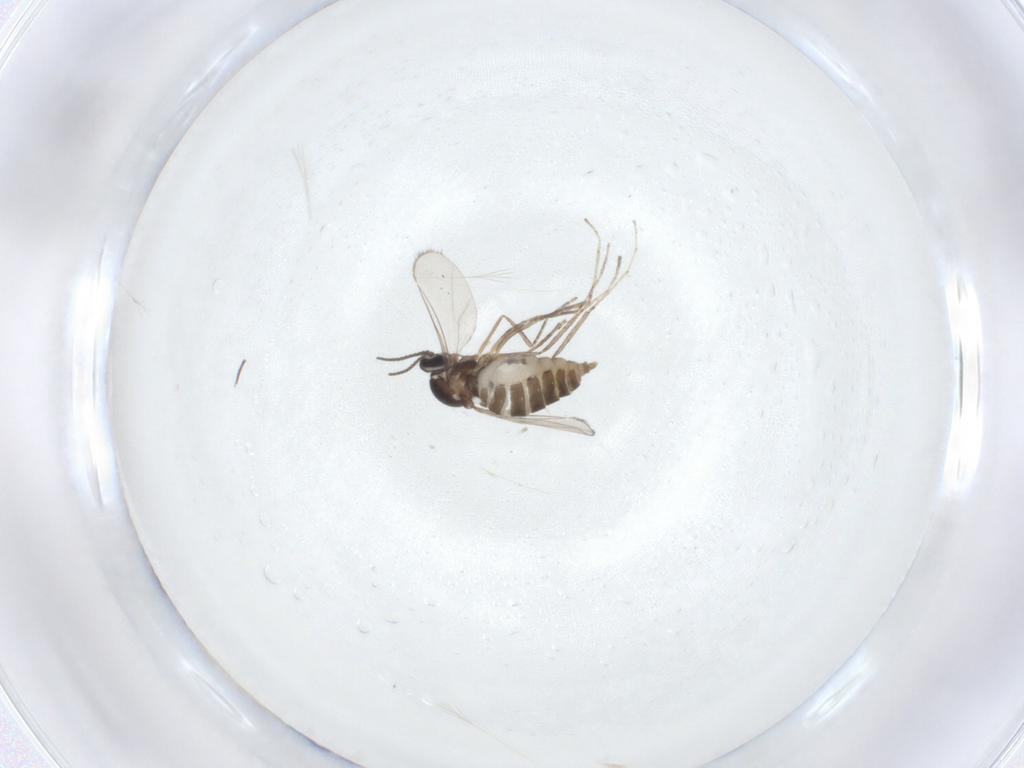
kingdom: Animalia
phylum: Arthropoda
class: Insecta
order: Diptera
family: Cecidomyiidae
